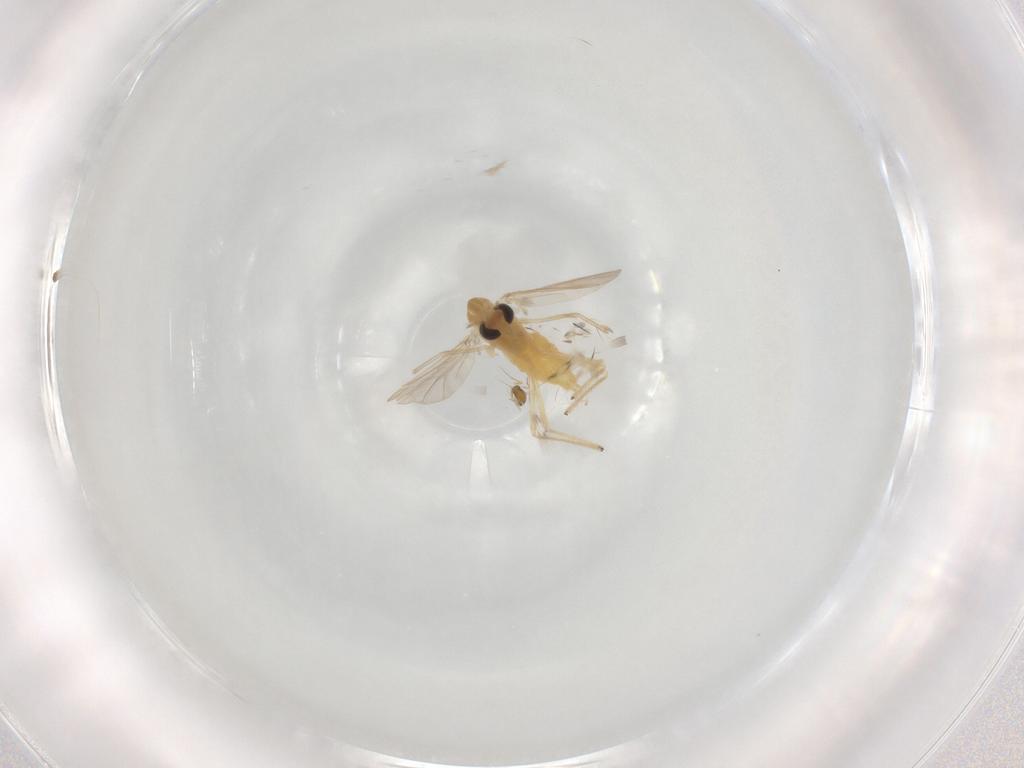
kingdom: Animalia
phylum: Arthropoda
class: Insecta
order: Diptera
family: Chironomidae
